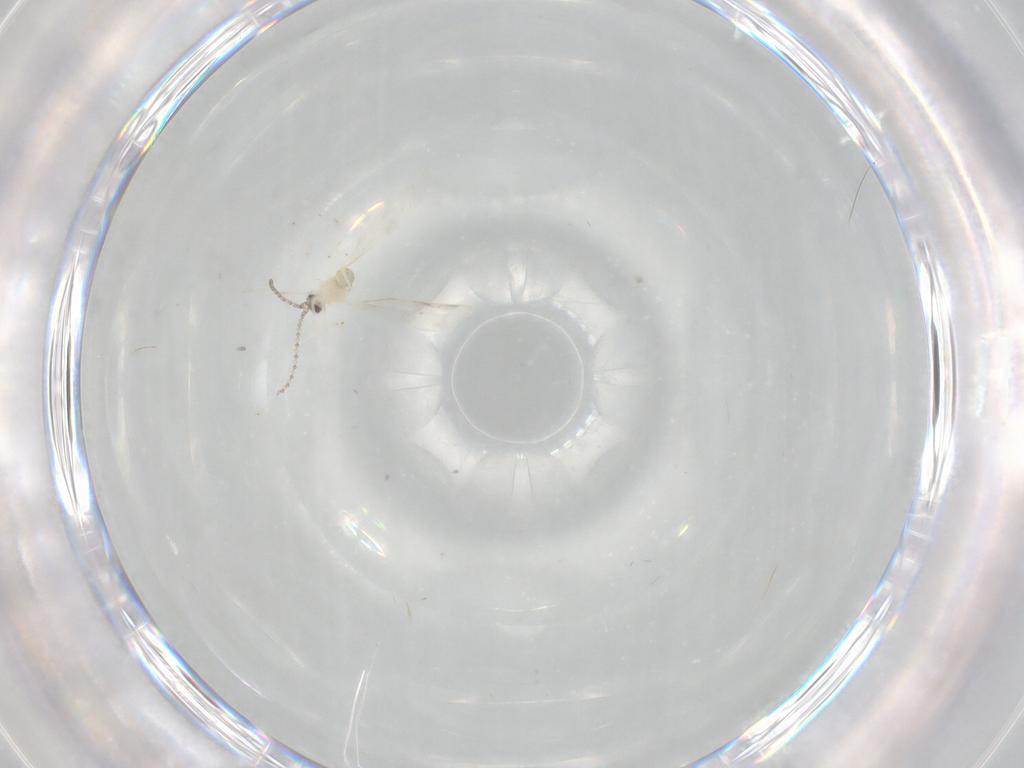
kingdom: Animalia
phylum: Arthropoda
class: Insecta
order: Diptera
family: Cecidomyiidae
